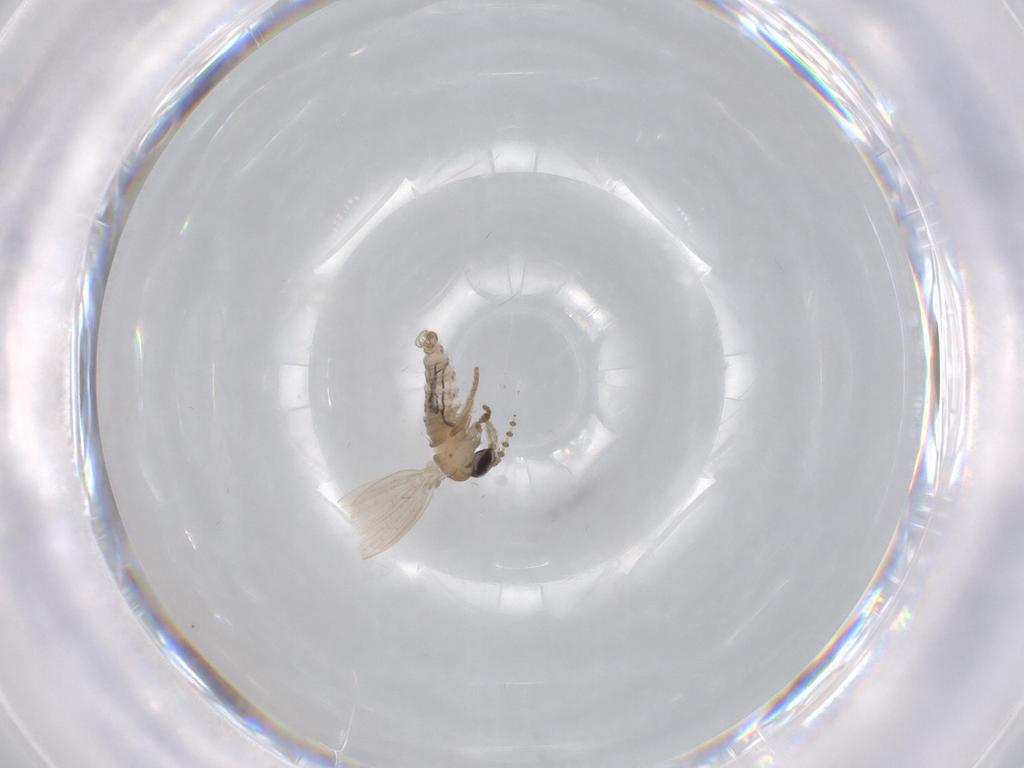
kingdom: Animalia
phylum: Arthropoda
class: Insecta
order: Diptera
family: Psychodidae
